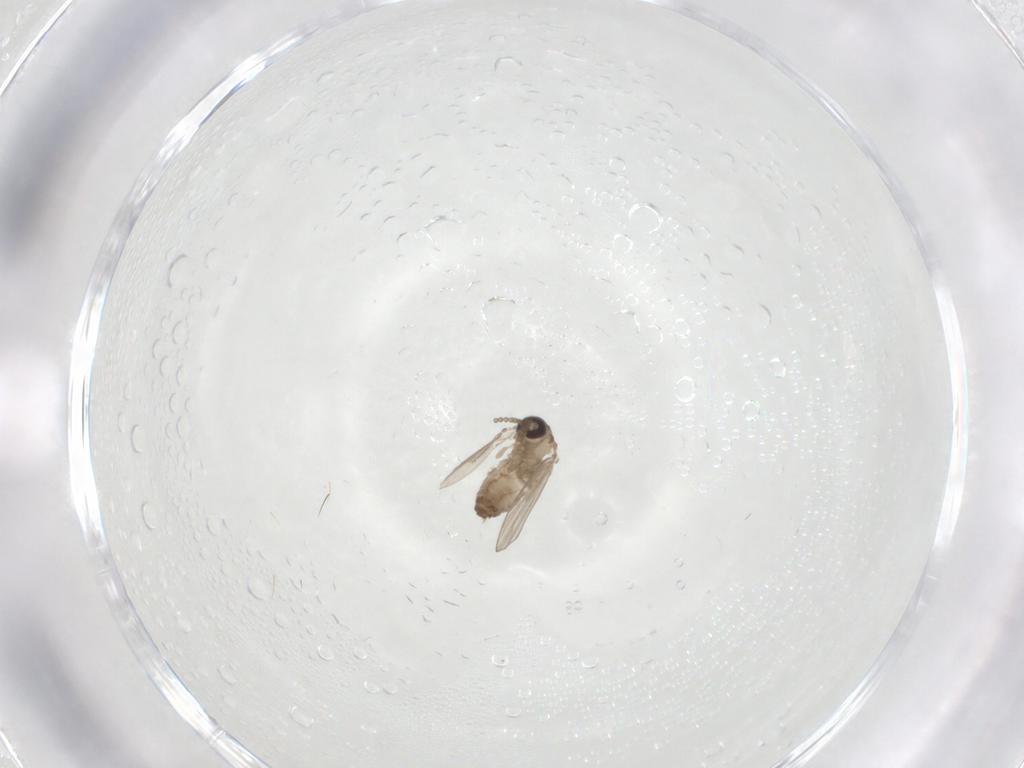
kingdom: Animalia
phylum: Arthropoda
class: Insecta
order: Diptera
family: Psychodidae
